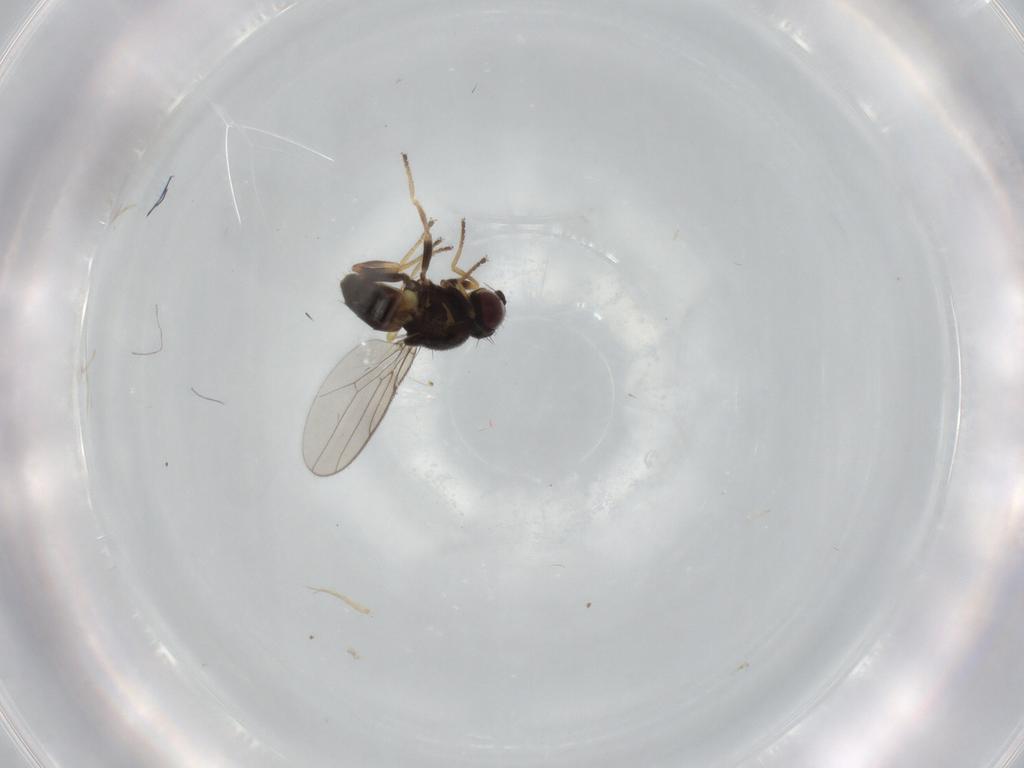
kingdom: Animalia
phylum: Arthropoda
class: Insecta
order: Diptera
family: Chloropidae
